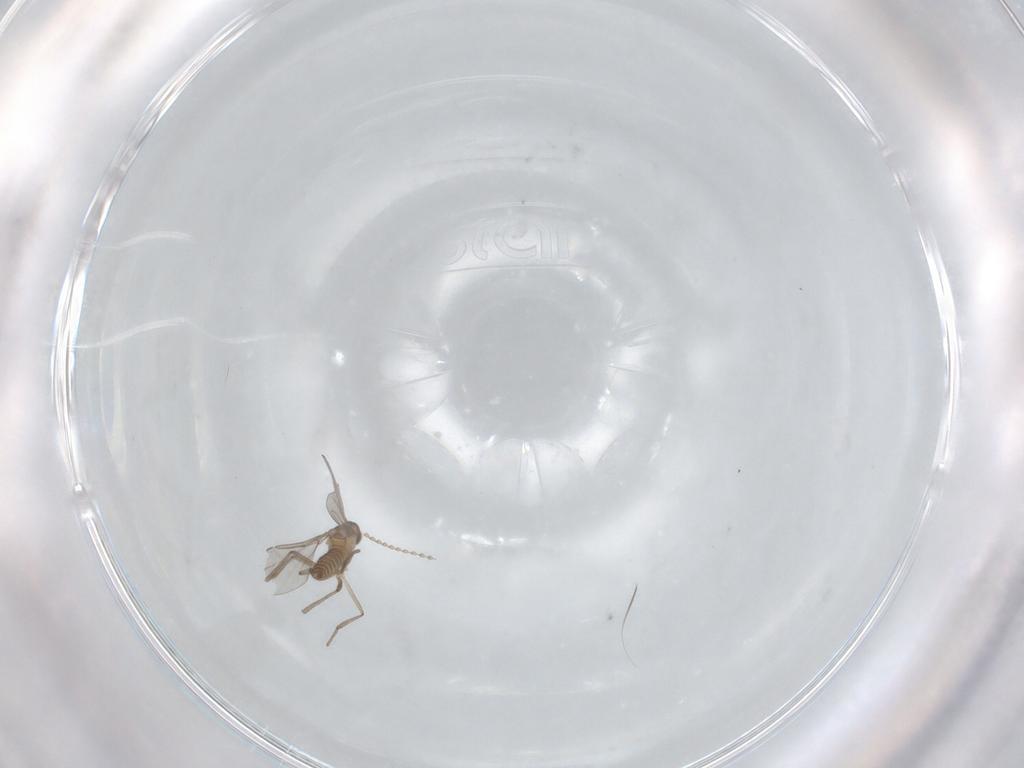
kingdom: Animalia
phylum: Arthropoda
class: Insecta
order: Diptera
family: Cecidomyiidae
